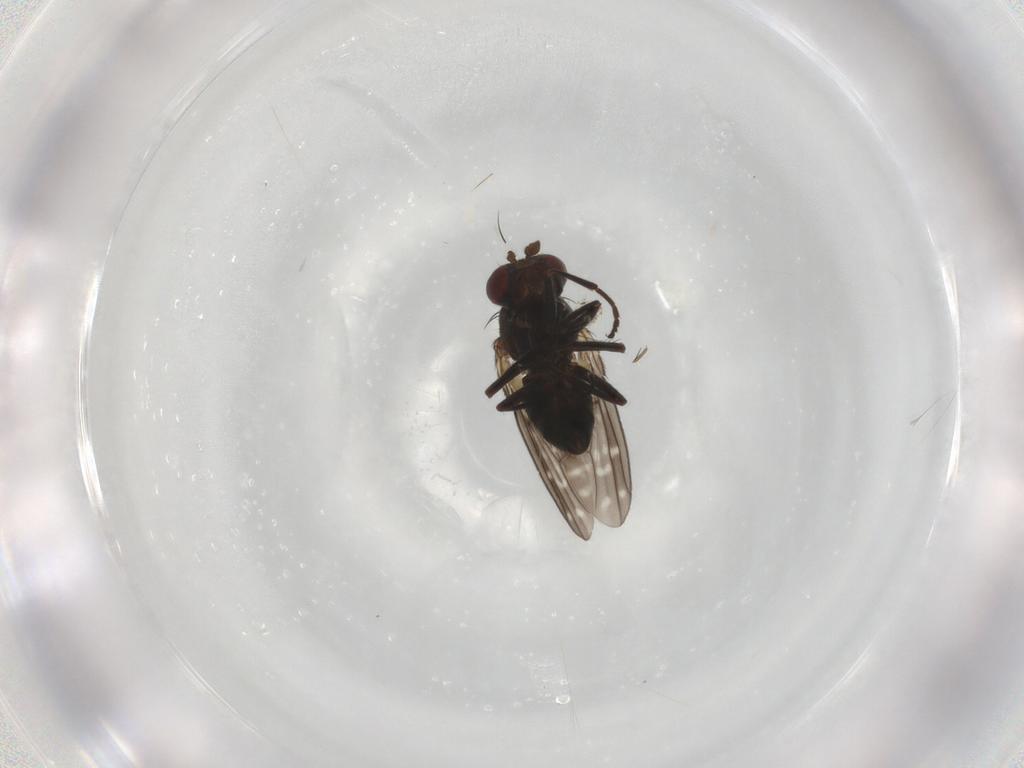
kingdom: Animalia
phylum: Arthropoda
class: Insecta
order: Diptera
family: Ephydridae
